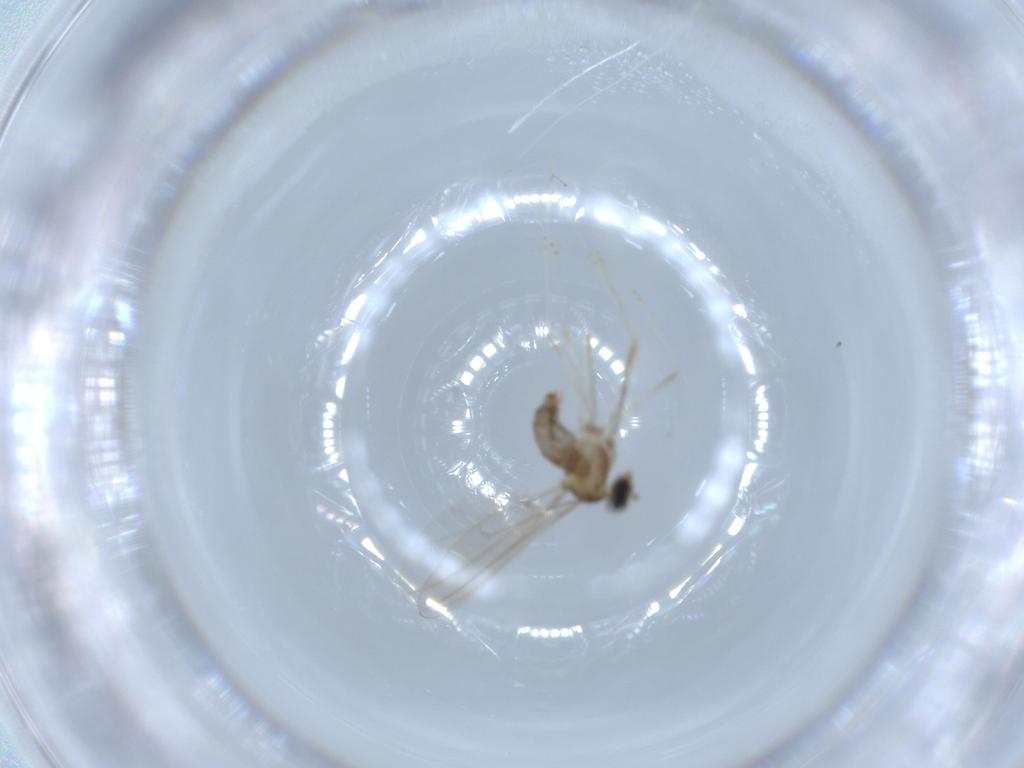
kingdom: Animalia
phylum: Arthropoda
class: Insecta
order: Diptera
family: Cecidomyiidae
